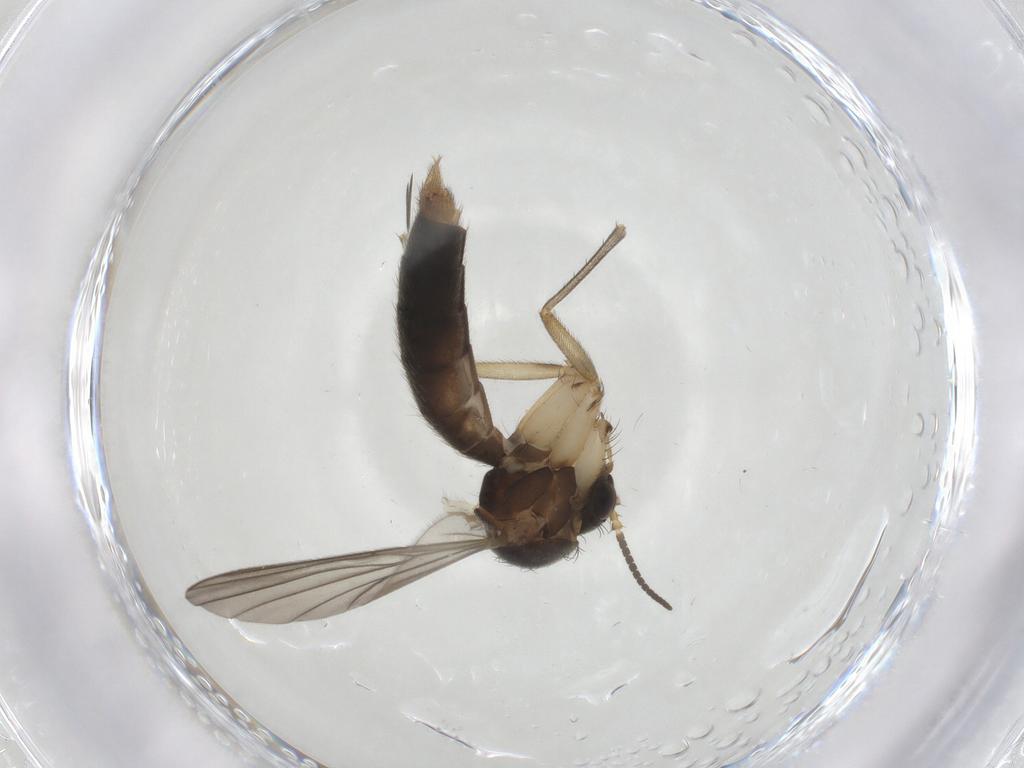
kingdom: Animalia
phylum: Arthropoda
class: Insecta
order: Diptera
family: Mycetophilidae
